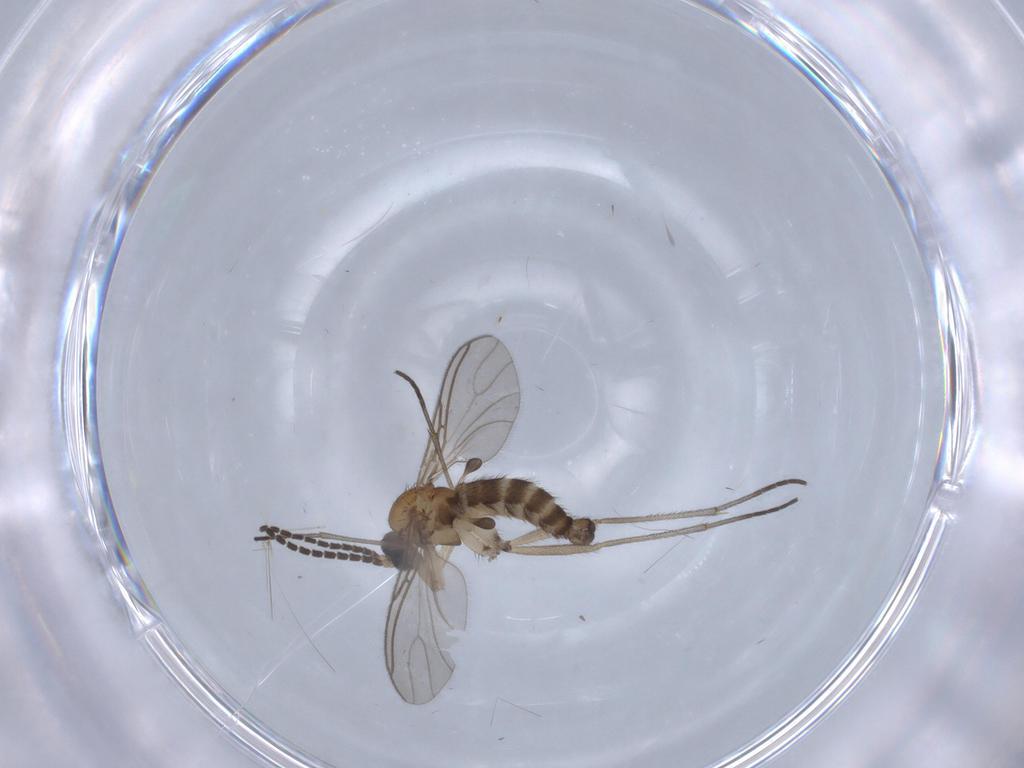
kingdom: Animalia
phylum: Arthropoda
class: Insecta
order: Diptera
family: Sciaridae
